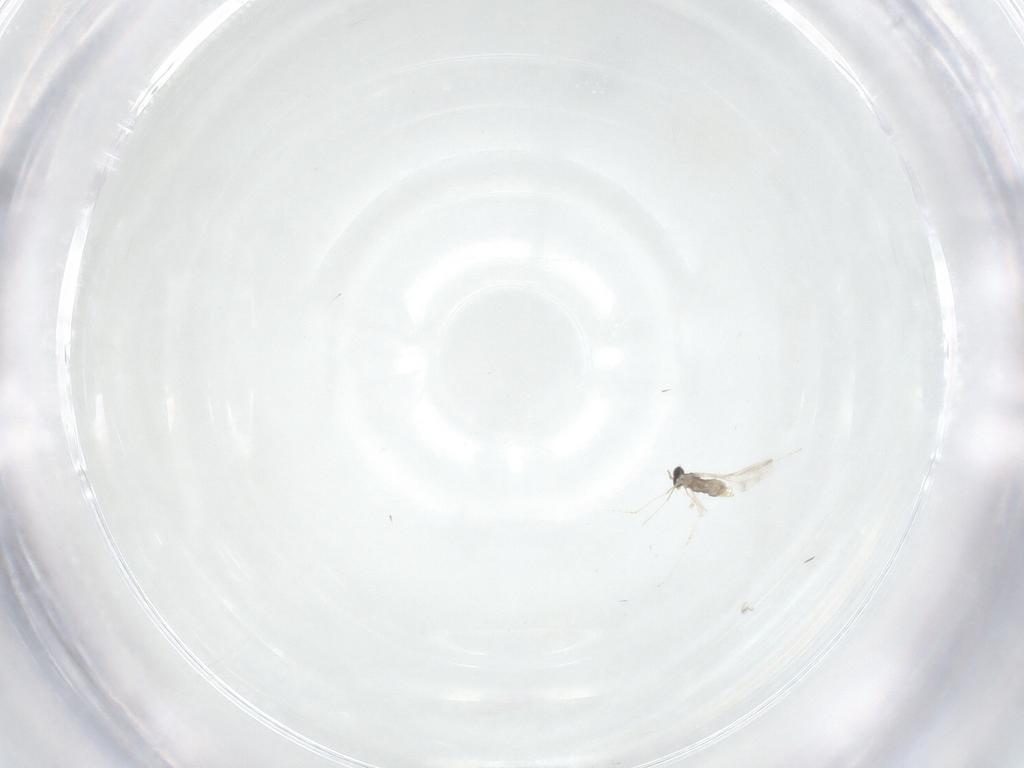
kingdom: Animalia
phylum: Arthropoda
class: Insecta
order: Diptera
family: Cecidomyiidae
